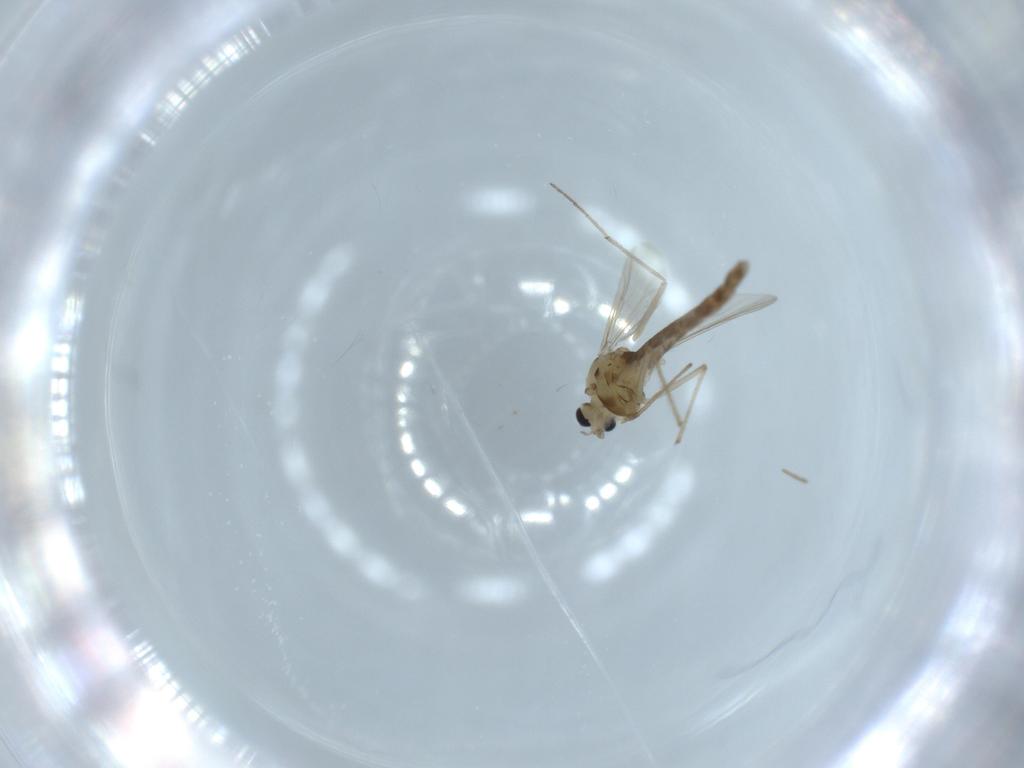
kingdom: Animalia
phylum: Arthropoda
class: Insecta
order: Diptera
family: Chironomidae
